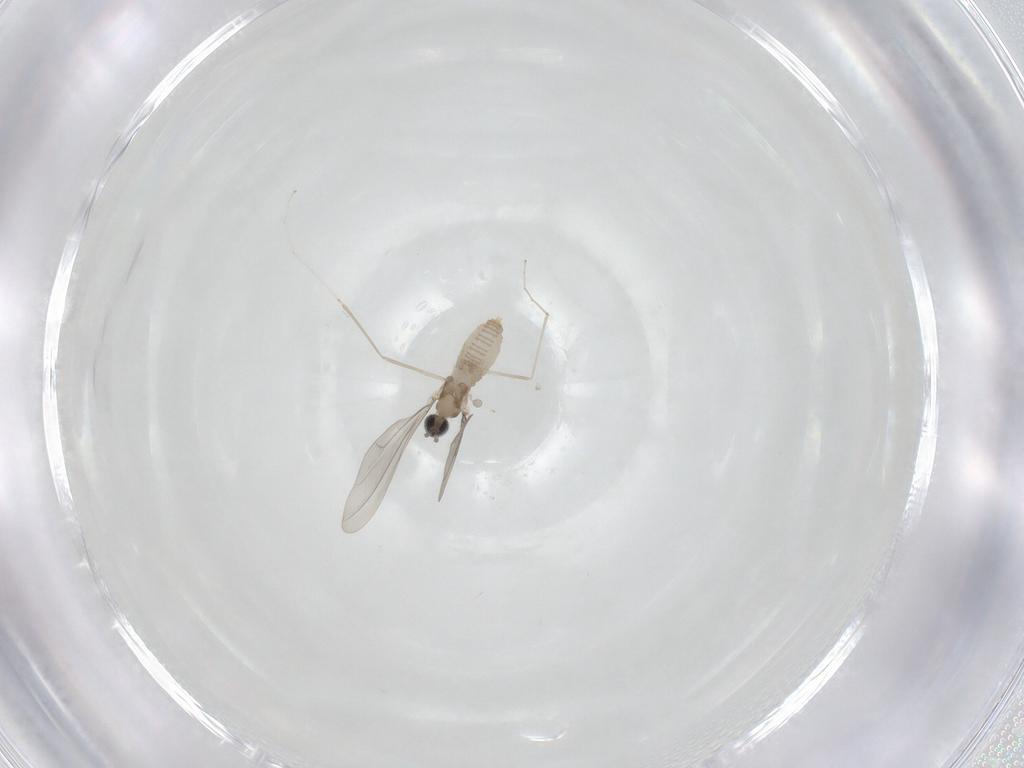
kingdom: Animalia
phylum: Arthropoda
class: Insecta
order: Diptera
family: Cecidomyiidae
